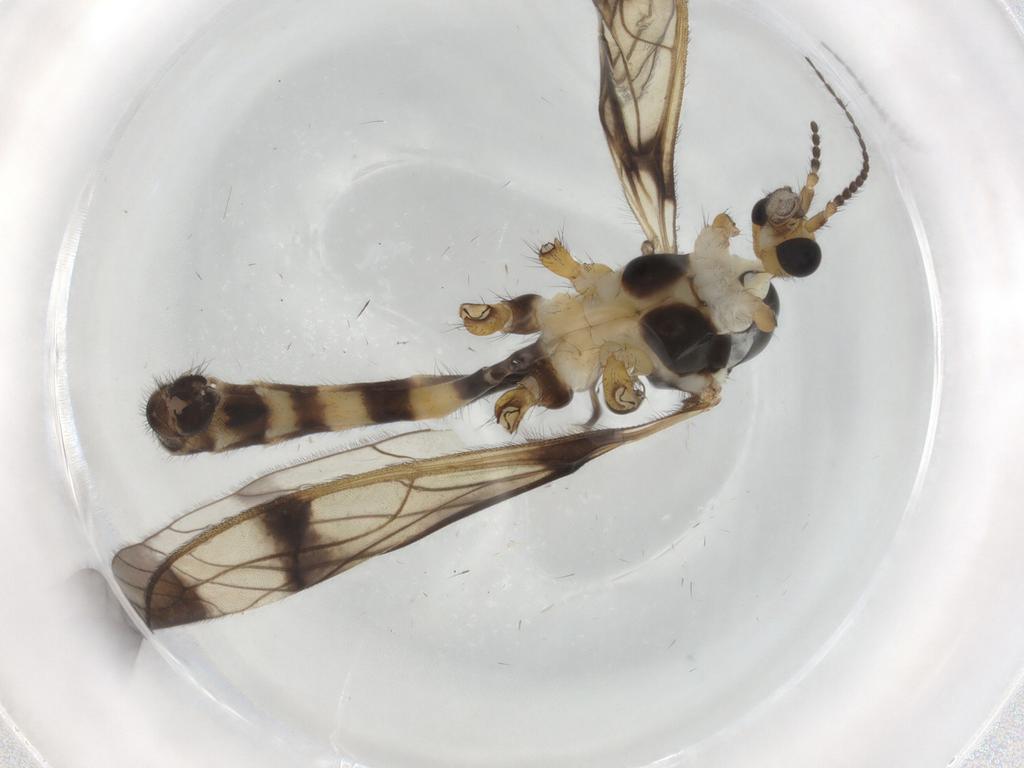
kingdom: Animalia
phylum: Arthropoda
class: Insecta
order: Diptera
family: Limoniidae
